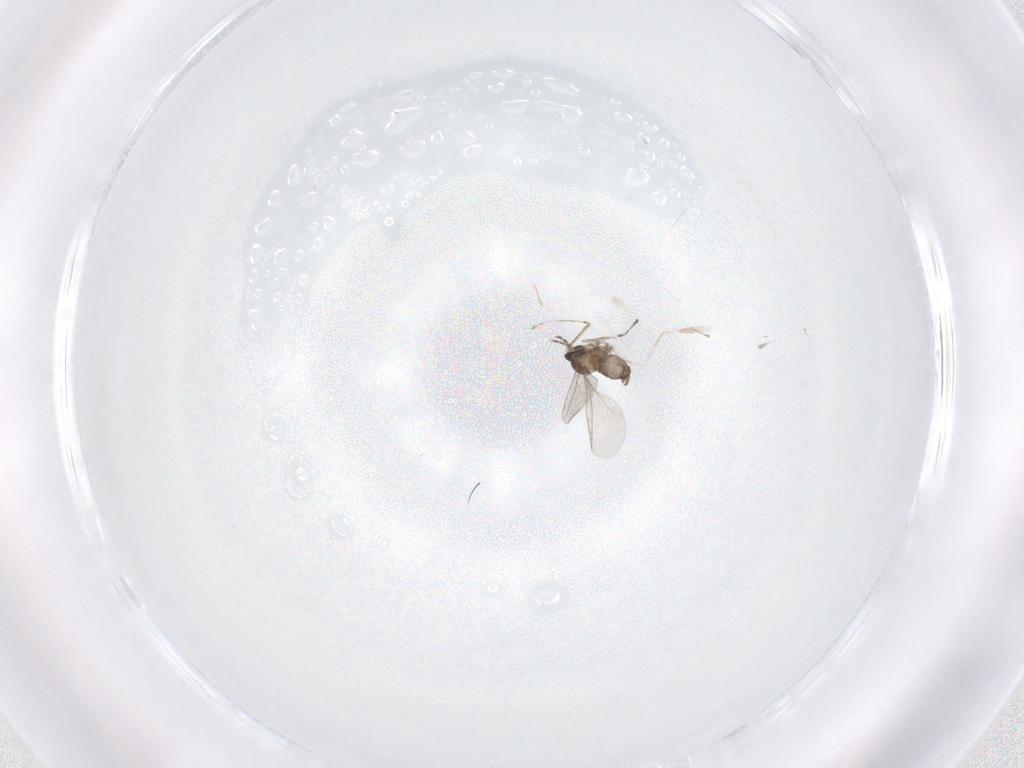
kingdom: Animalia
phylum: Arthropoda
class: Insecta
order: Diptera
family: Cecidomyiidae
